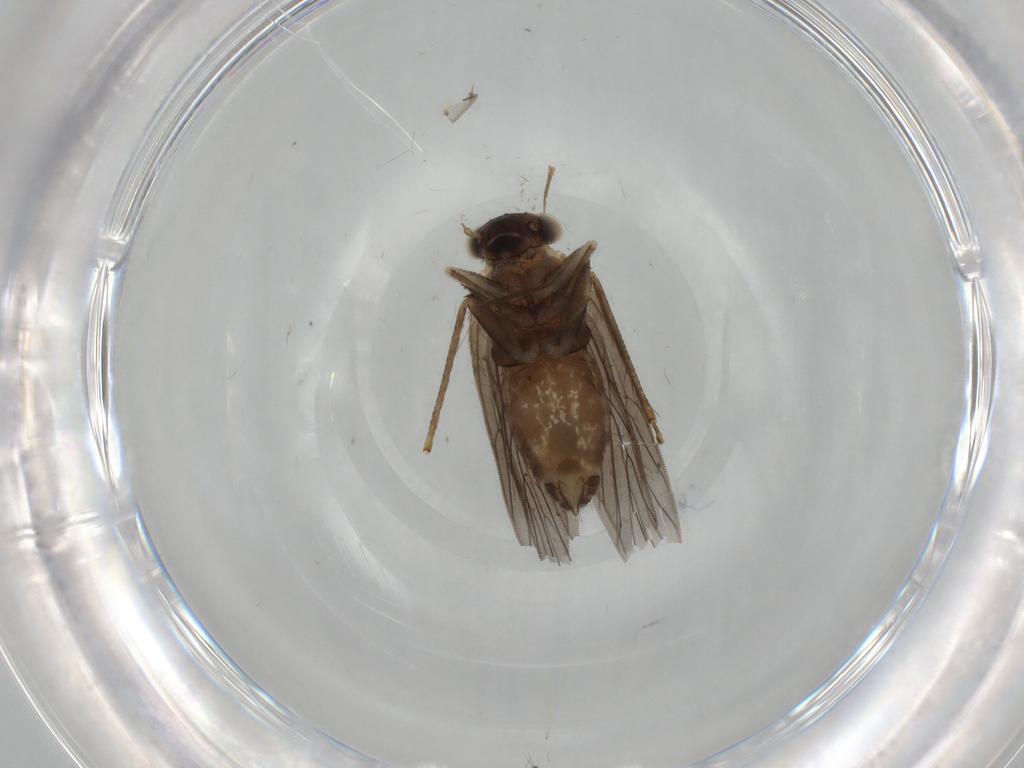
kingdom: Animalia
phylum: Arthropoda
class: Insecta
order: Psocodea
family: Lepidopsocidae
